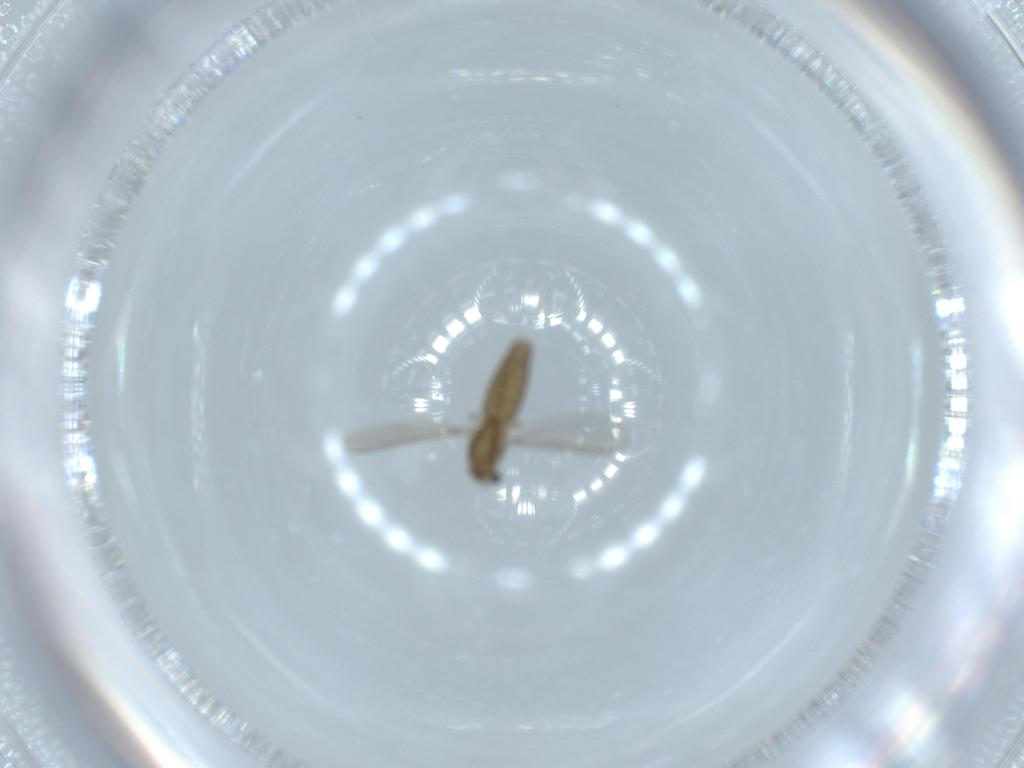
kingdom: Animalia
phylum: Arthropoda
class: Insecta
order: Diptera
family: Chironomidae
